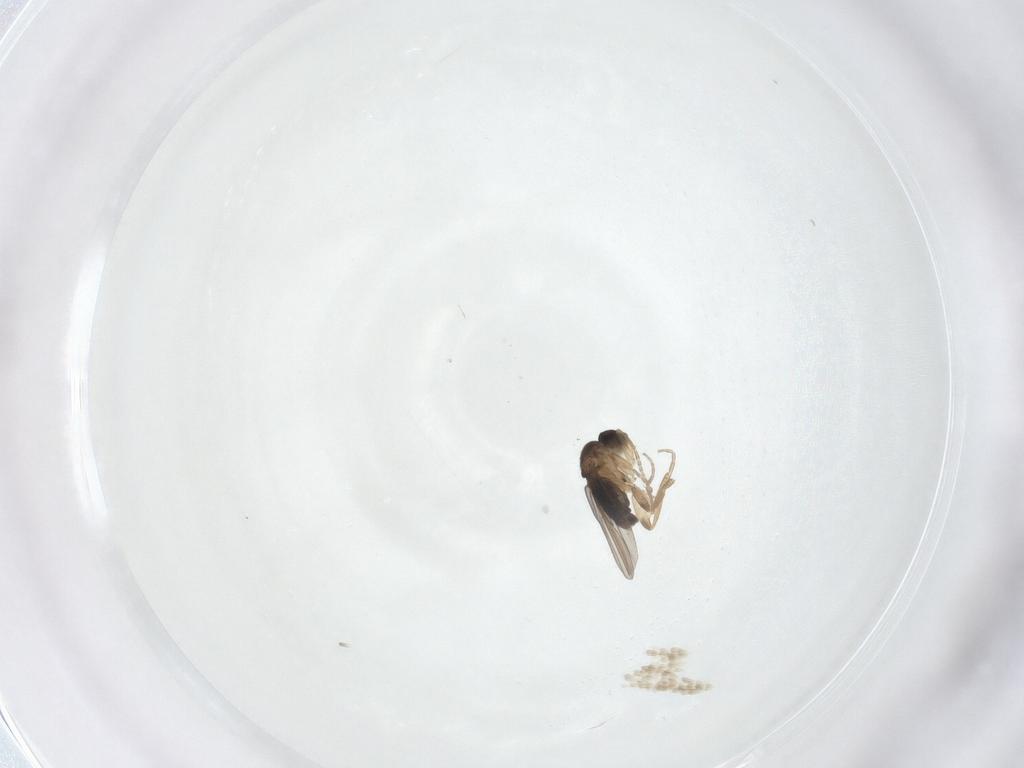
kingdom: Animalia
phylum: Arthropoda
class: Insecta
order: Diptera
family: Phoridae
